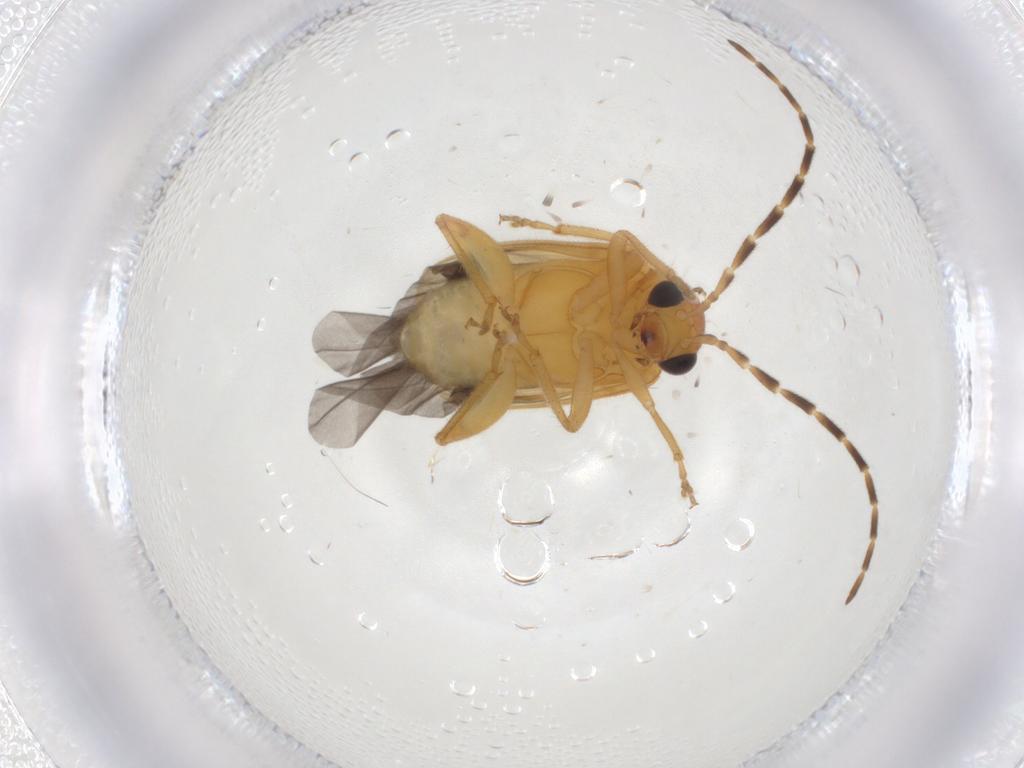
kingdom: Animalia
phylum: Arthropoda
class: Insecta
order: Coleoptera
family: Chrysomelidae
